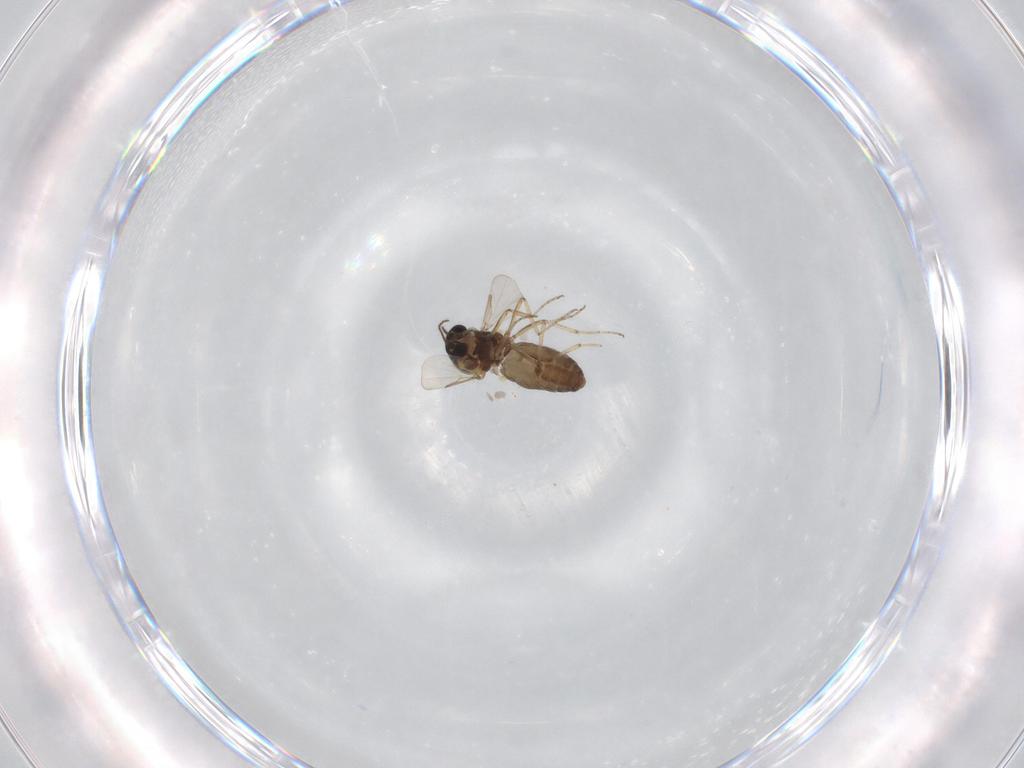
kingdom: Animalia
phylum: Arthropoda
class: Insecta
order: Diptera
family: Ceratopogonidae
